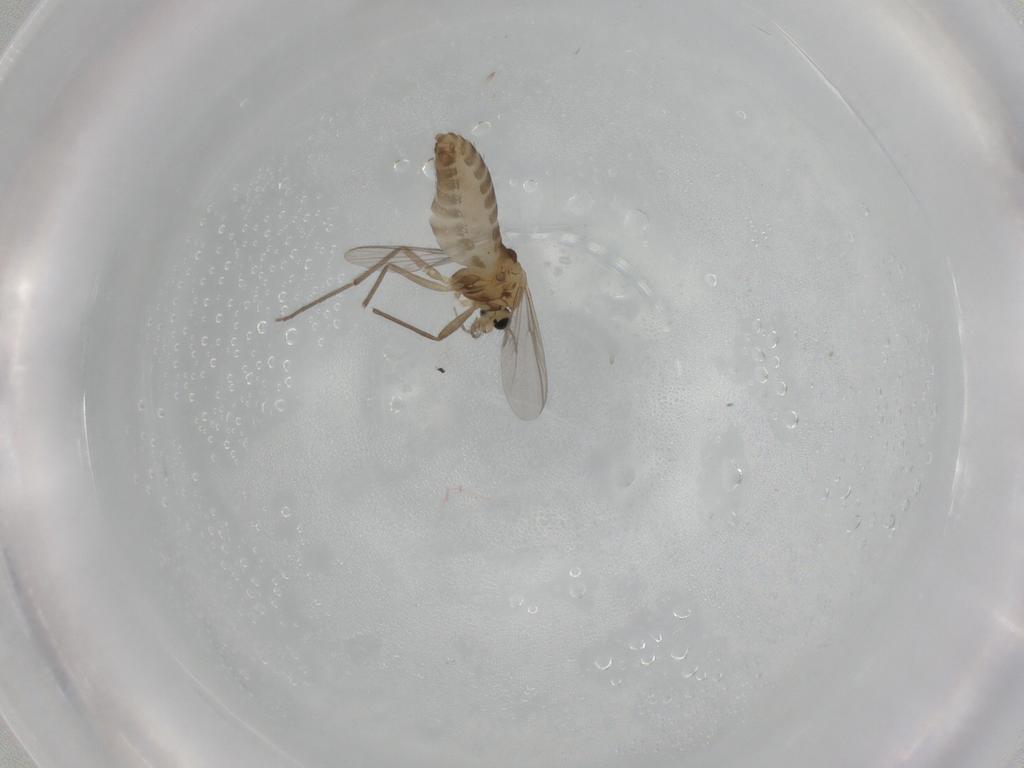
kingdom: Animalia
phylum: Arthropoda
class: Insecta
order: Diptera
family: Chironomidae
